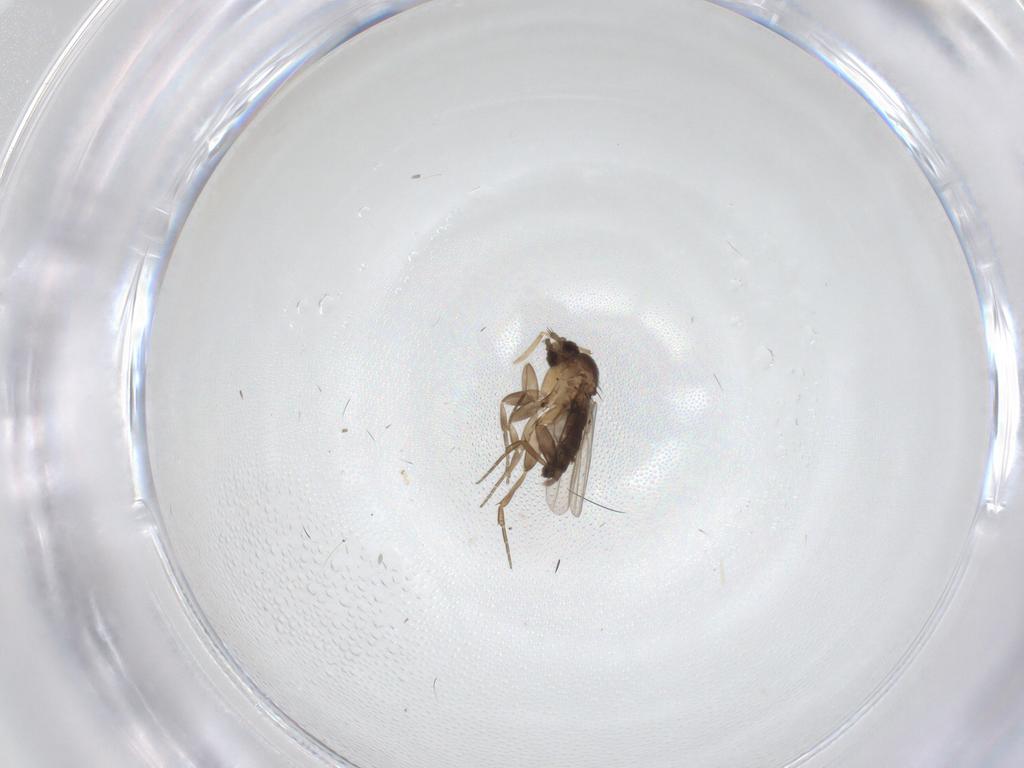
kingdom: Animalia
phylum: Arthropoda
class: Insecta
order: Diptera
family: Phoridae
